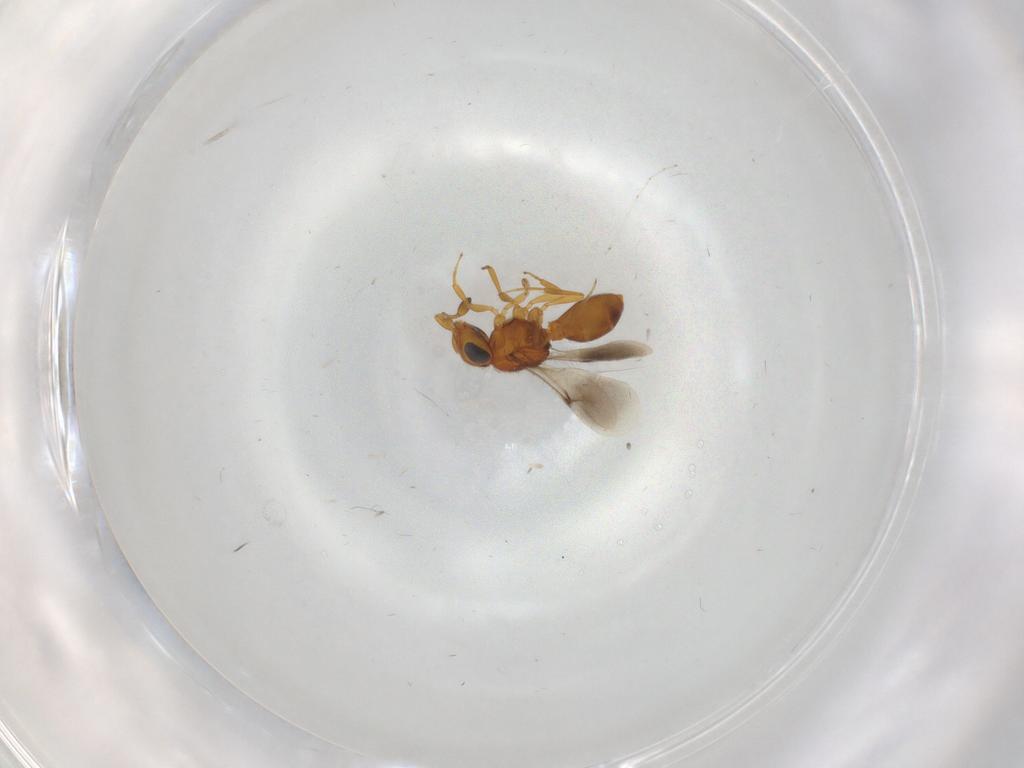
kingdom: Animalia
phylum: Arthropoda
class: Insecta
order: Hymenoptera
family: Scelionidae
